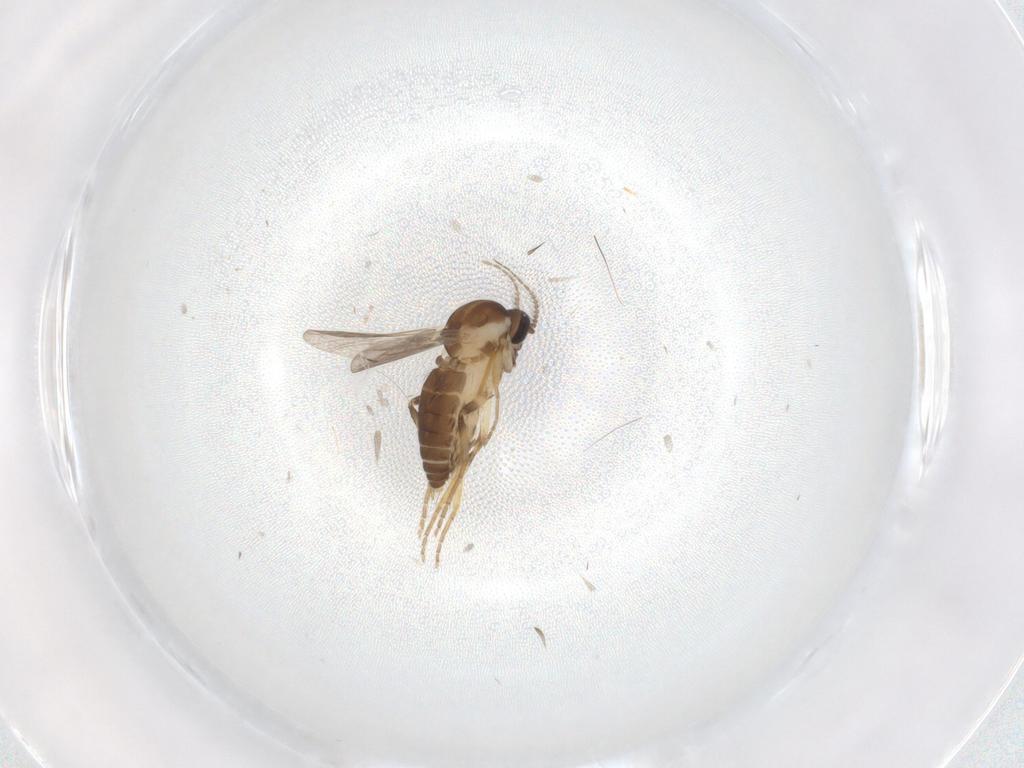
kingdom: Animalia
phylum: Arthropoda
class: Insecta
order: Diptera
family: Ceratopogonidae
